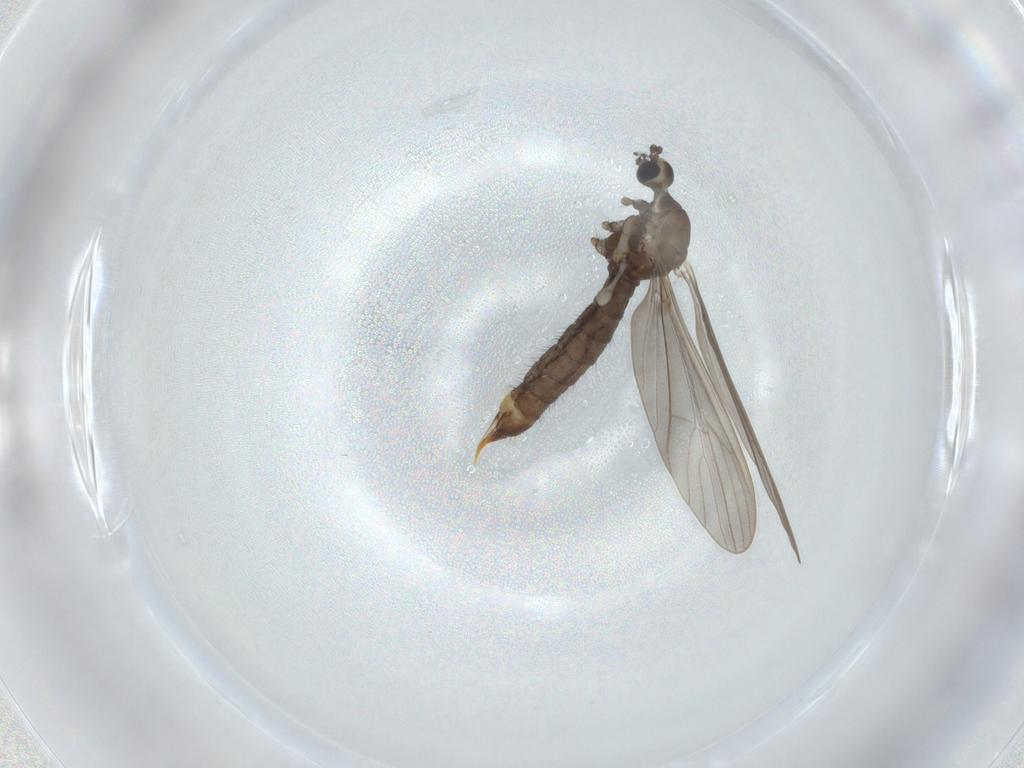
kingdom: Animalia
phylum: Arthropoda
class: Insecta
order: Diptera
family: Limoniidae
